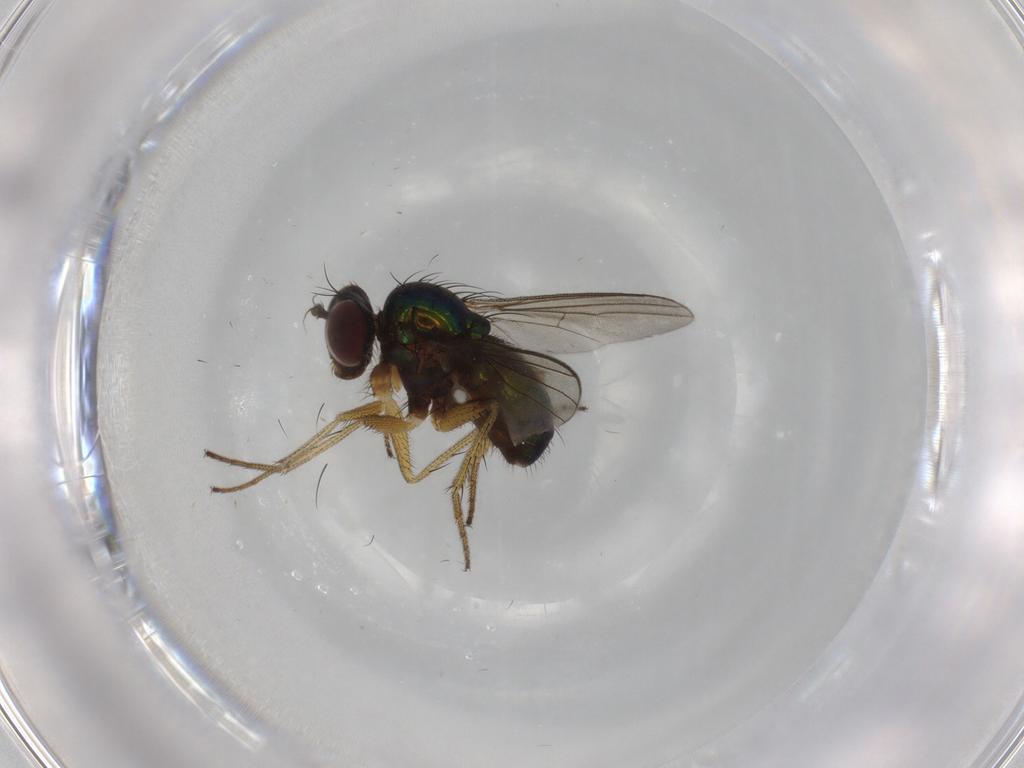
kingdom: Animalia
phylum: Arthropoda
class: Insecta
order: Diptera
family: Dolichopodidae
